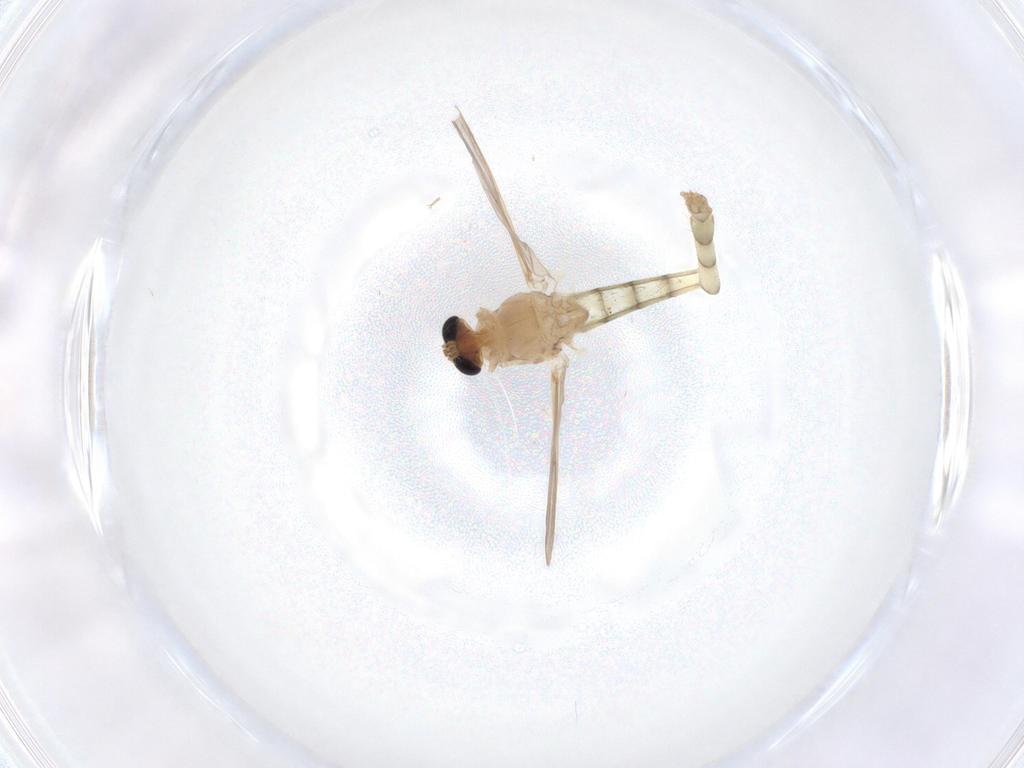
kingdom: Animalia
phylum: Arthropoda
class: Insecta
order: Diptera
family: Chironomidae
